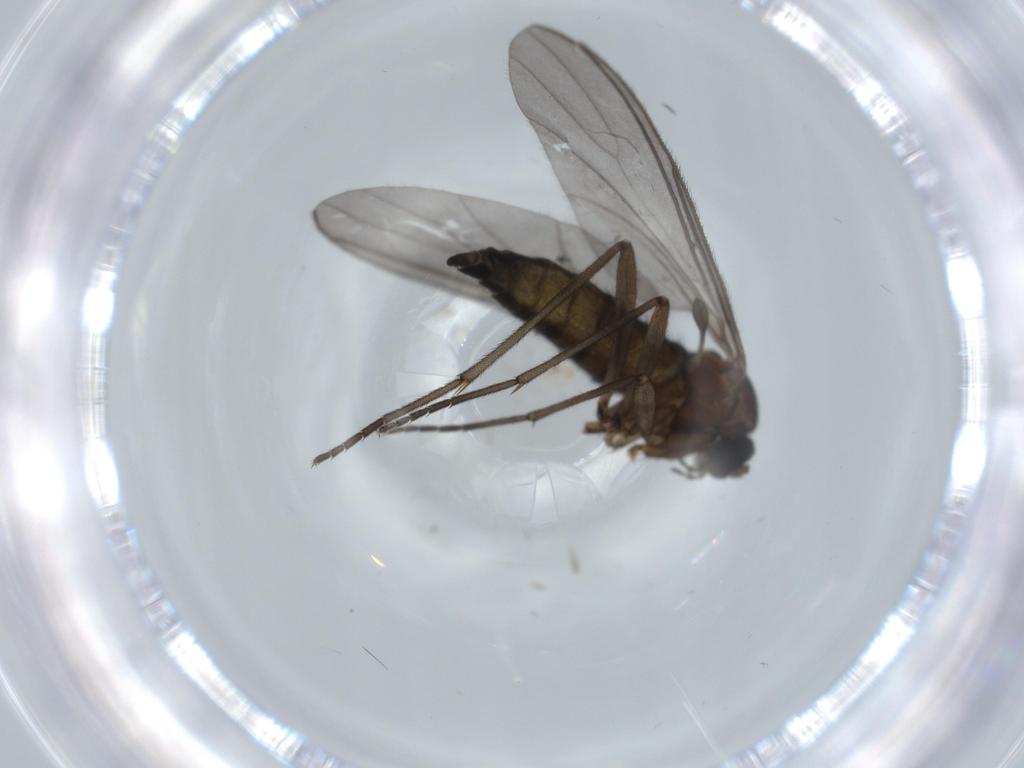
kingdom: Animalia
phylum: Arthropoda
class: Insecta
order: Diptera
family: Sciaridae
